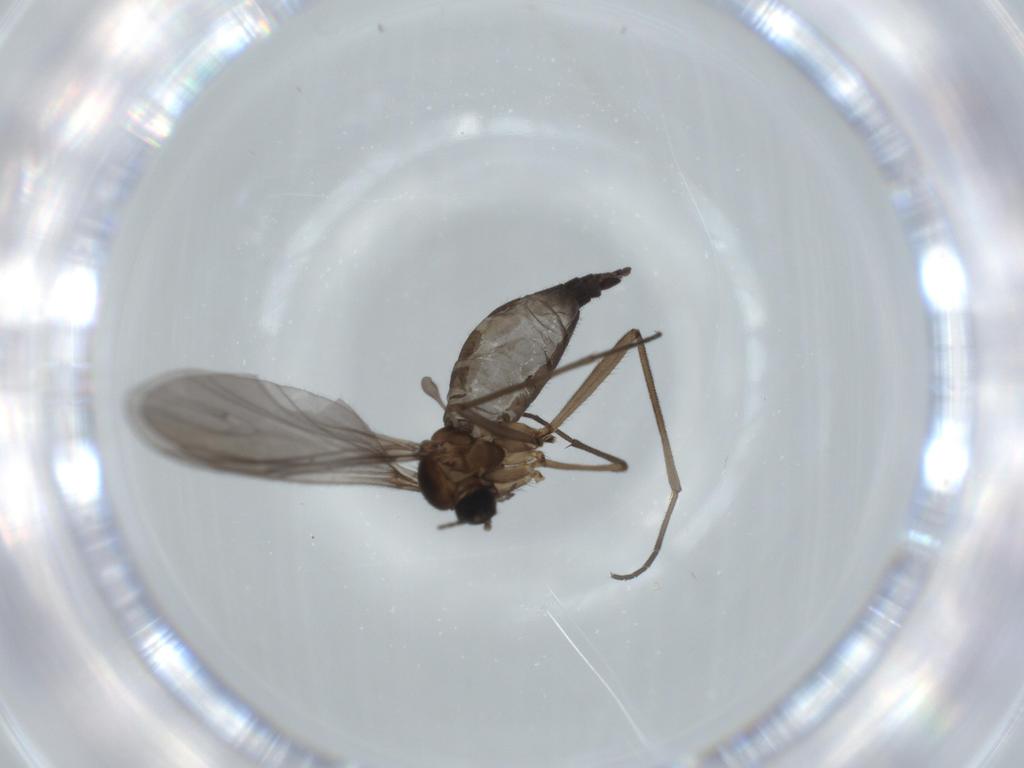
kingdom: Animalia
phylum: Arthropoda
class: Insecta
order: Diptera
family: Sciaridae
